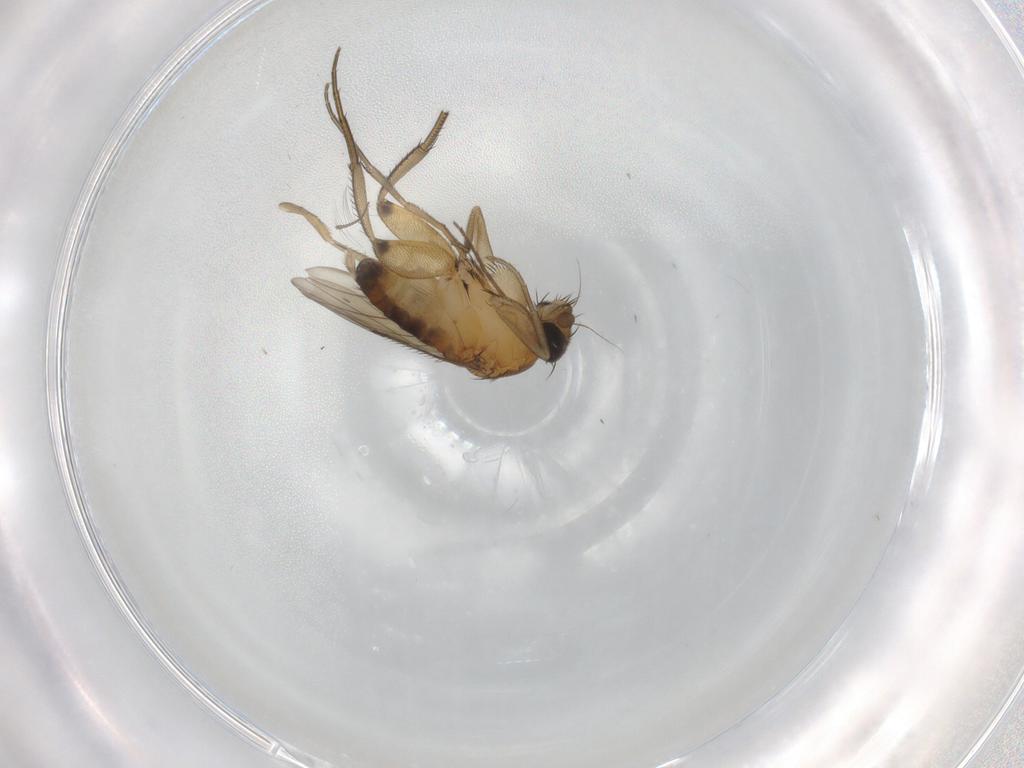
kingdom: Animalia
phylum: Arthropoda
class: Insecta
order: Diptera
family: Phoridae
